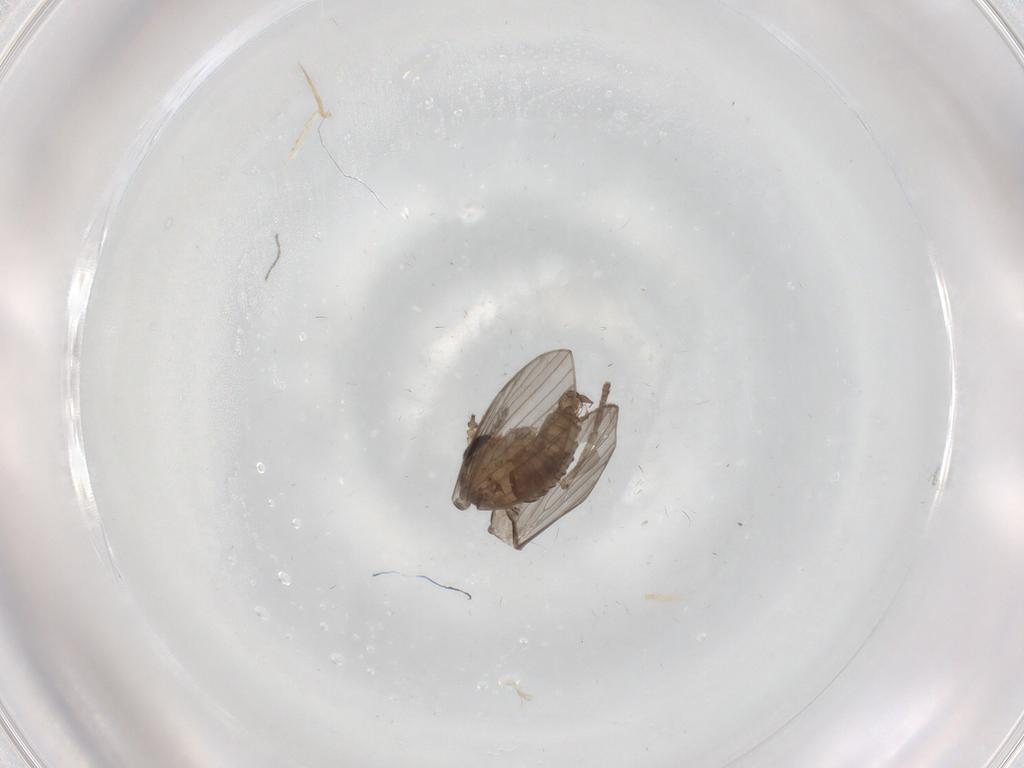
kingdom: Animalia
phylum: Arthropoda
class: Insecta
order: Diptera
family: Psychodidae
